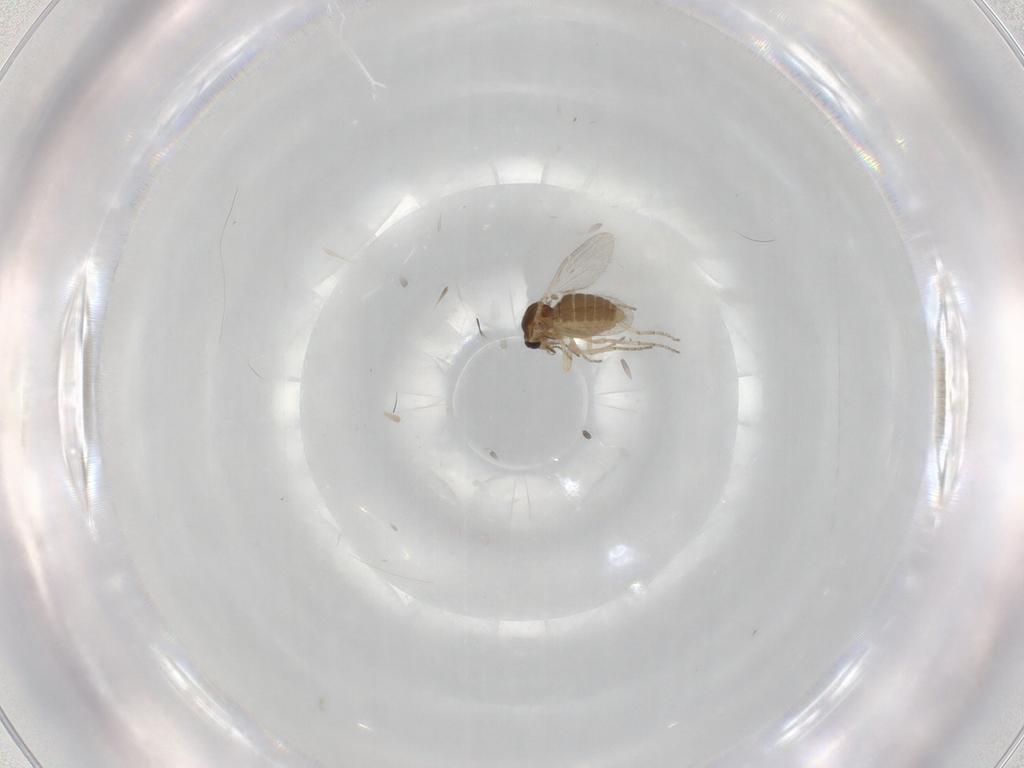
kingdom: Animalia
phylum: Arthropoda
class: Insecta
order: Diptera
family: Ceratopogonidae
